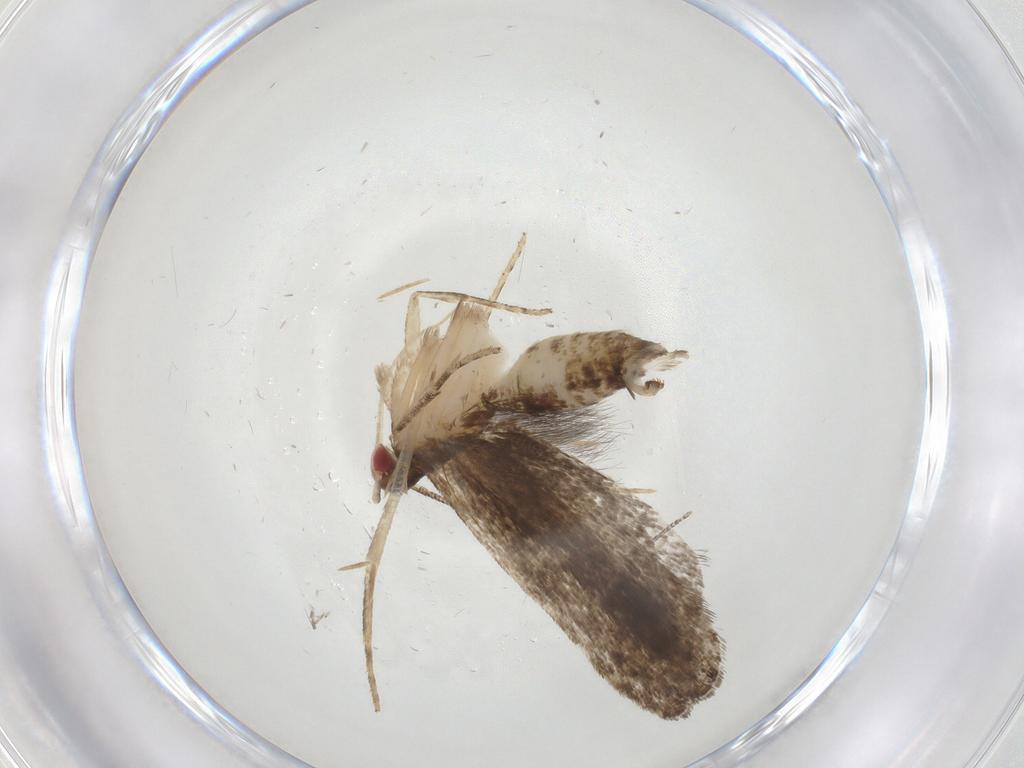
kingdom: Animalia
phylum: Arthropoda
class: Insecta
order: Lepidoptera
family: Gelechiidae
